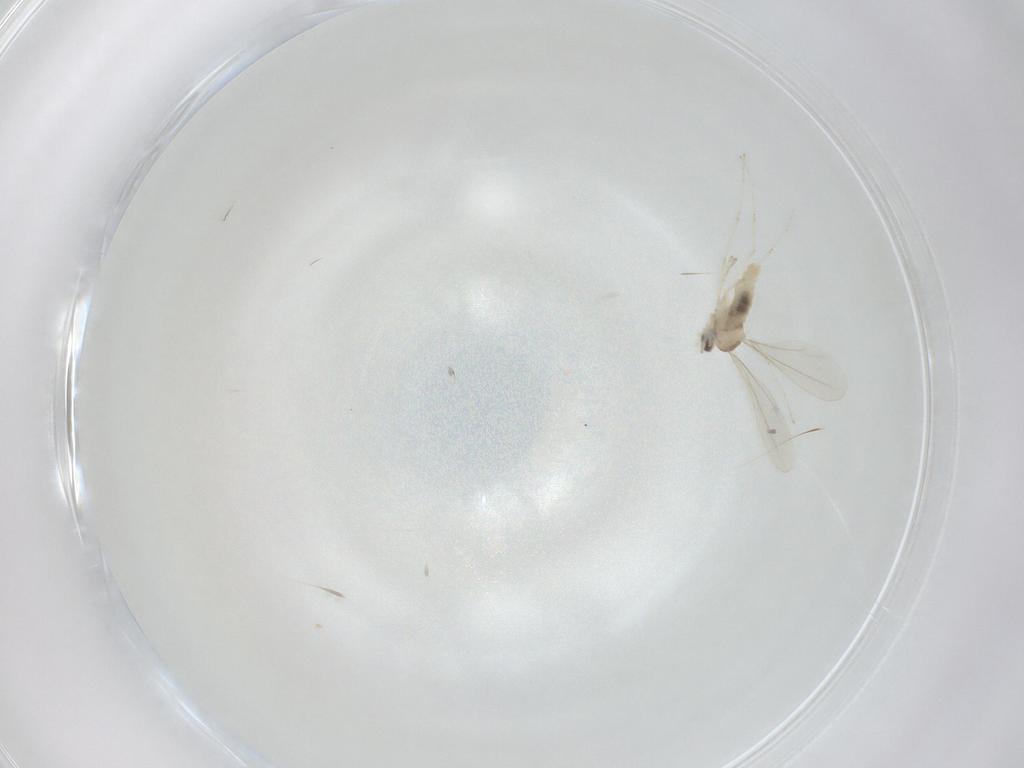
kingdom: Animalia
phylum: Arthropoda
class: Insecta
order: Diptera
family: Cecidomyiidae
